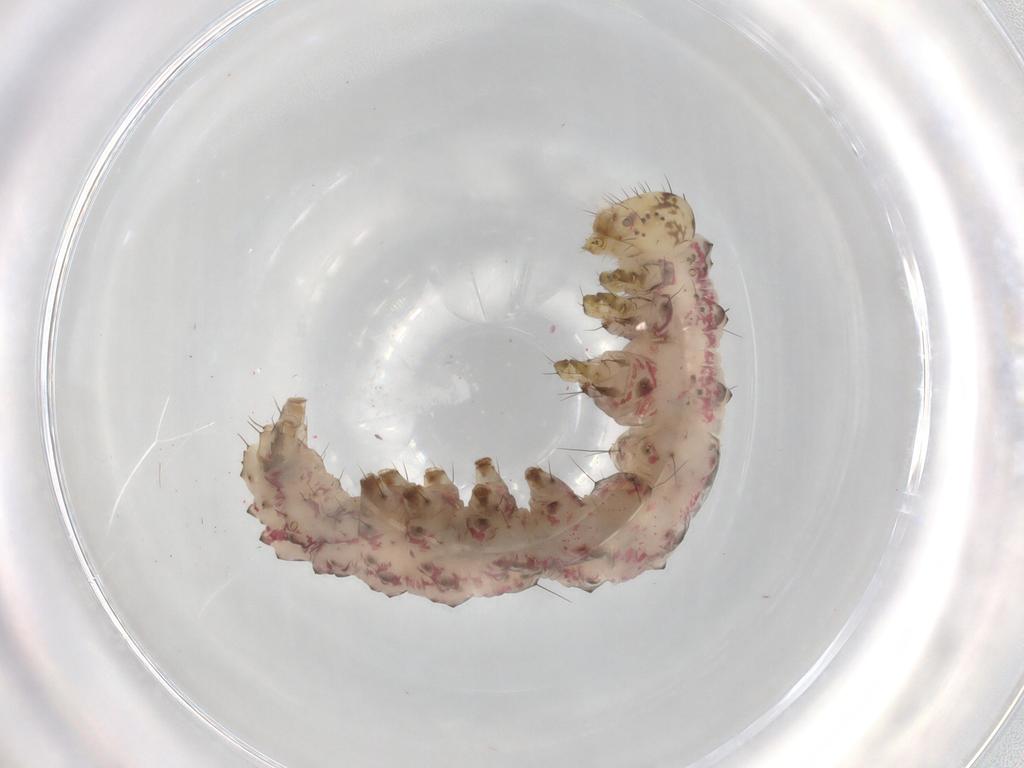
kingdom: Animalia
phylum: Arthropoda
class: Insecta
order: Lepidoptera
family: Erebidae
